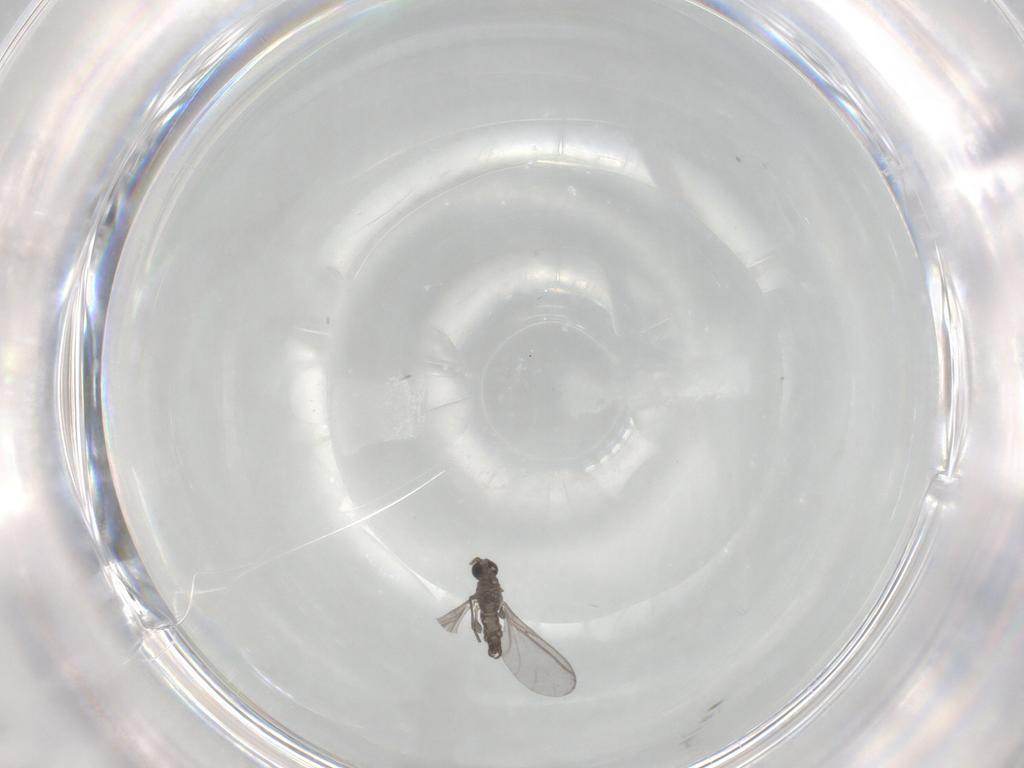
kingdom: Animalia
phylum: Arthropoda
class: Insecta
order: Diptera
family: Sciaridae
